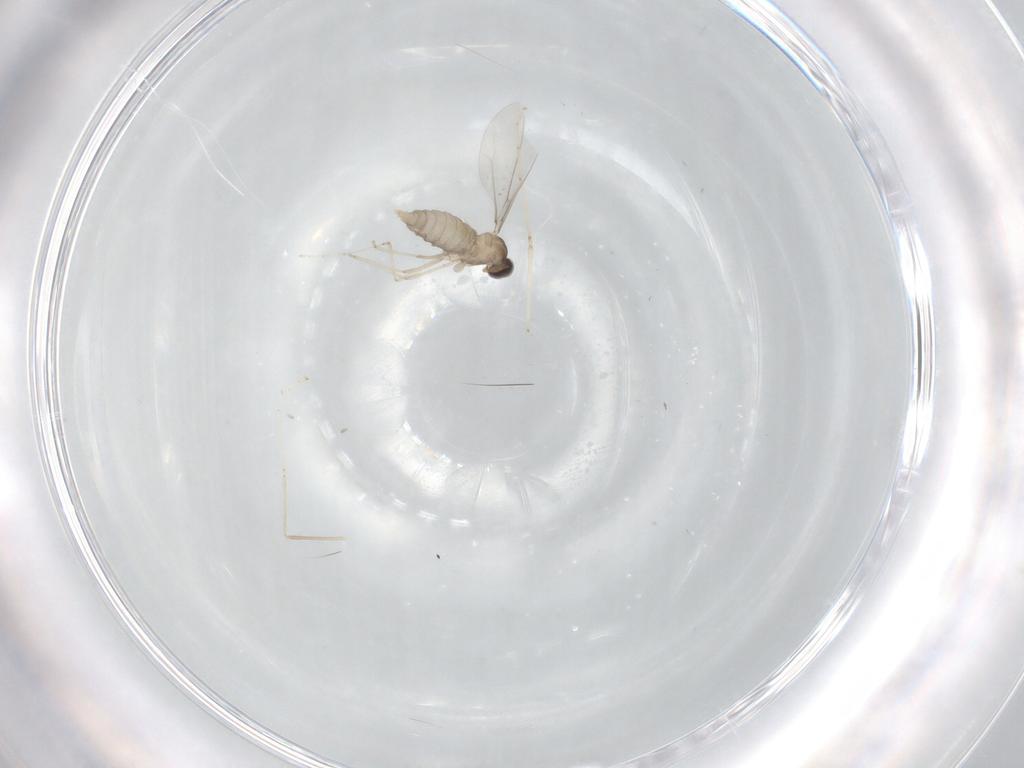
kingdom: Animalia
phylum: Arthropoda
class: Insecta
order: Diptera
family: Cecidomyiidae
